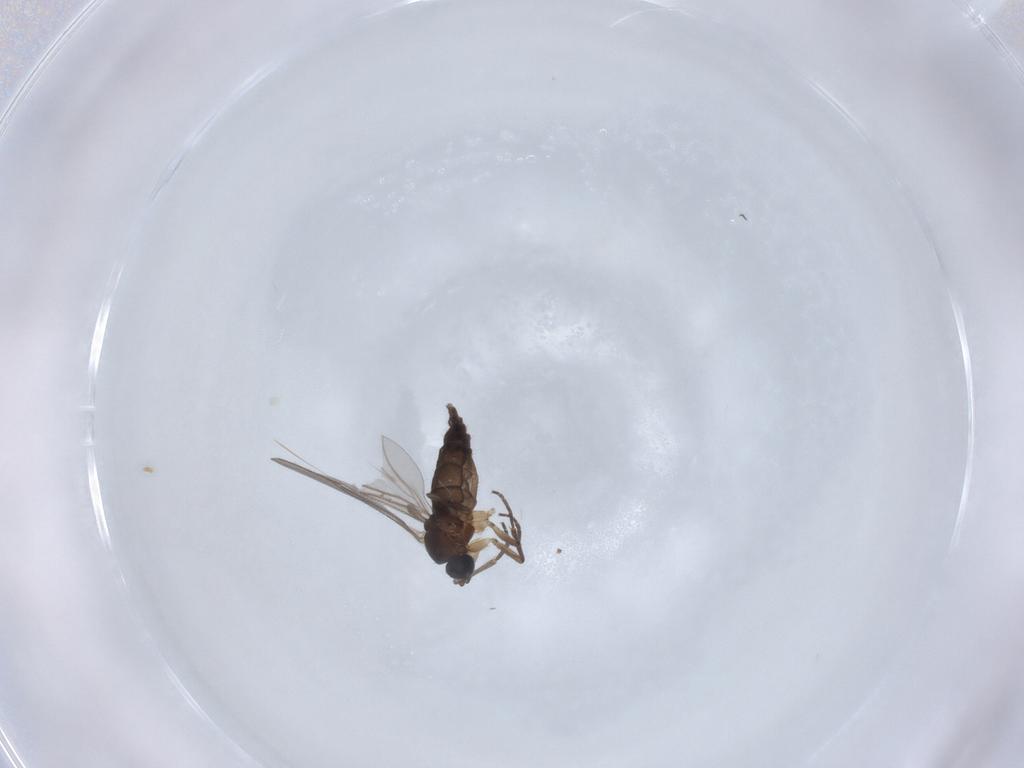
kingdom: Animalia
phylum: Arthropoda
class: Insecta
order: Diptera
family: Sciaridae
